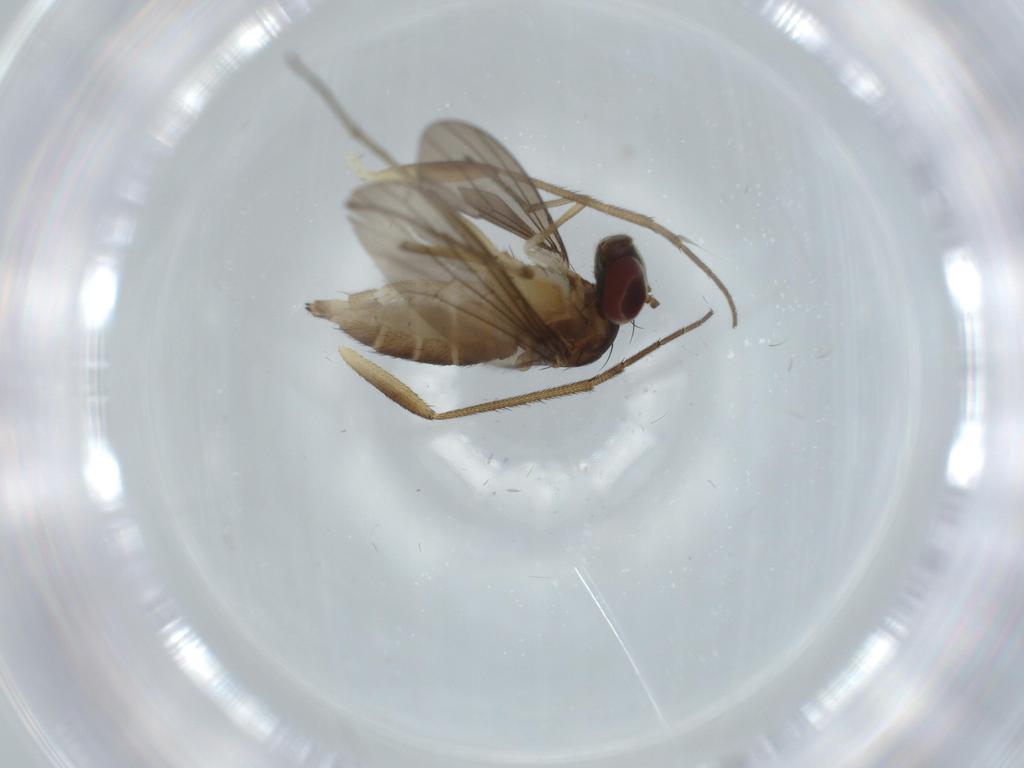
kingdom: Animalia
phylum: Arthropoda
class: Insecta
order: Diptera
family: Dolichopodidae
